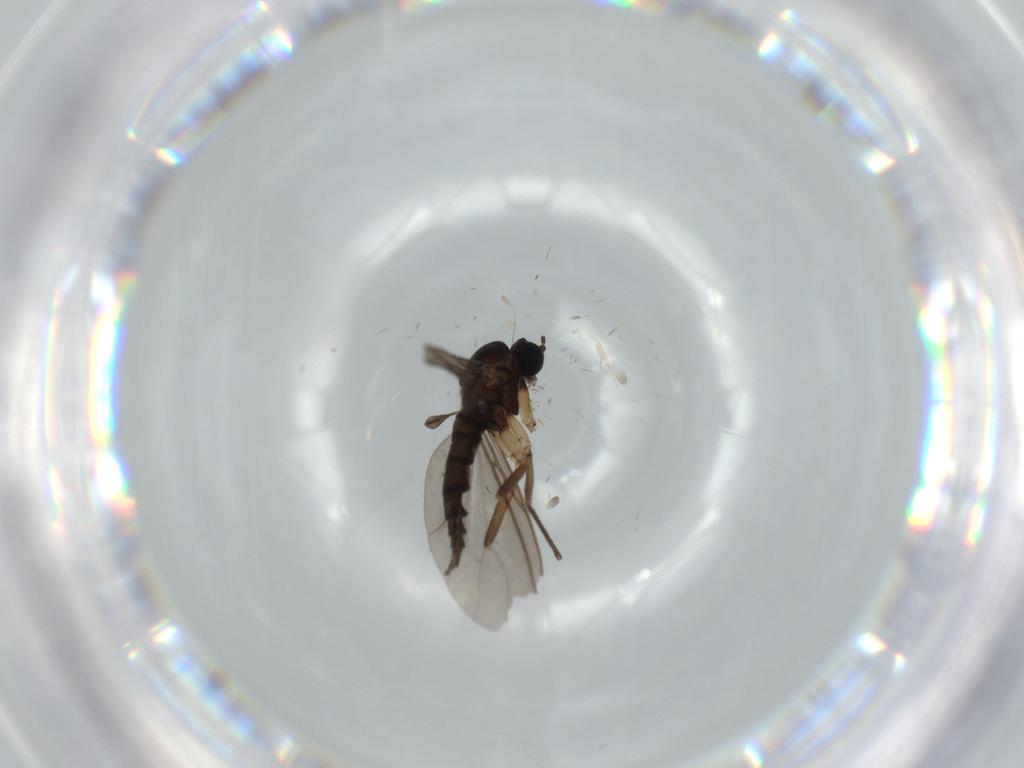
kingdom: Animalia
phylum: Arthropoda
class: Insecta
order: Diptera
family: Sciaridae
